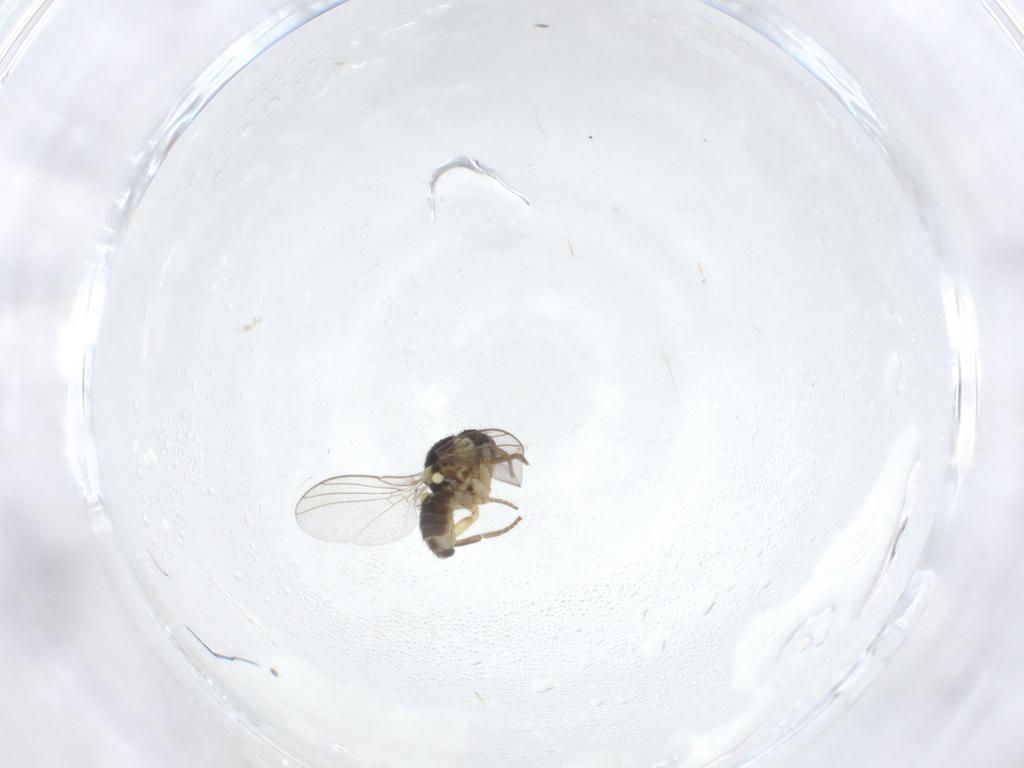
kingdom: Animalia
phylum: Arthropoda
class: Insecta
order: Diptera
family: Agromyzidae
